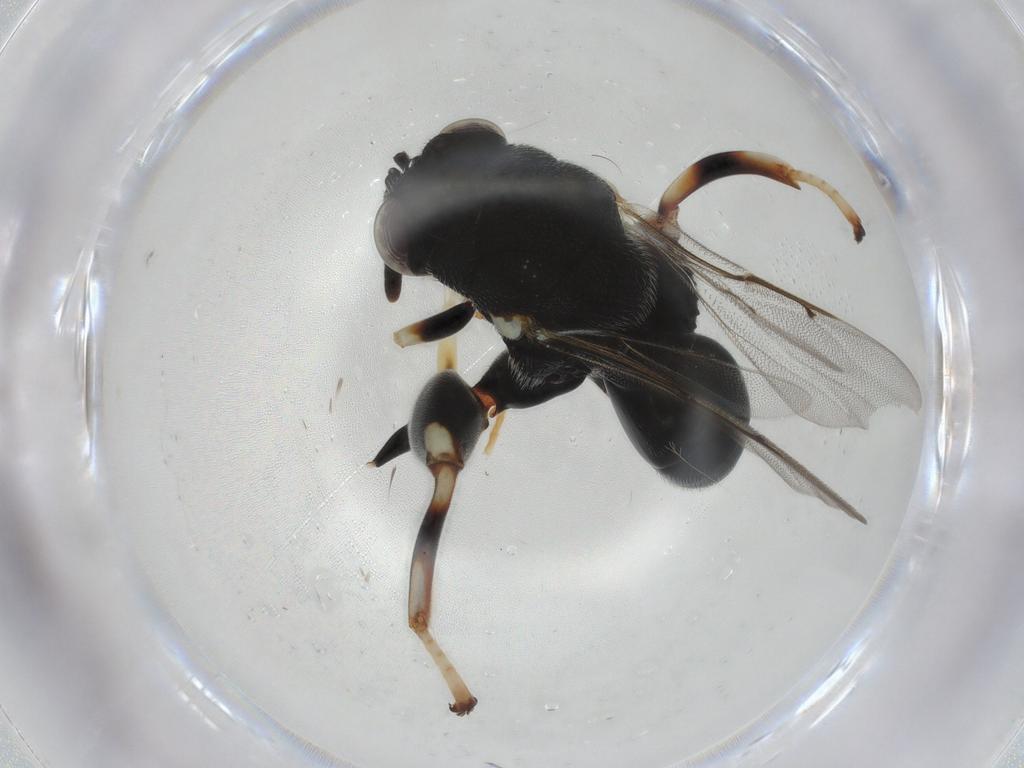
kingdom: Animalia
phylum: Arthropoda
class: Insecta
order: Hymenoptera
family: Chalcididae
